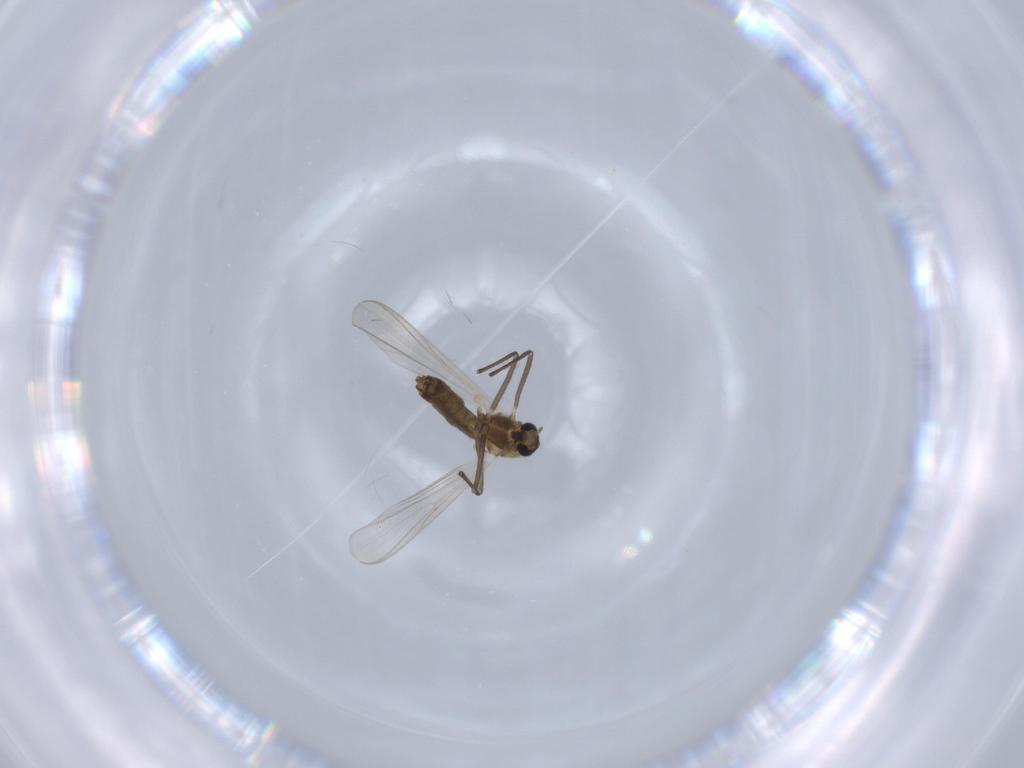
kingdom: Animalia
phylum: Arthropoda
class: Insecta
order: Diptera
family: Chironomidae
